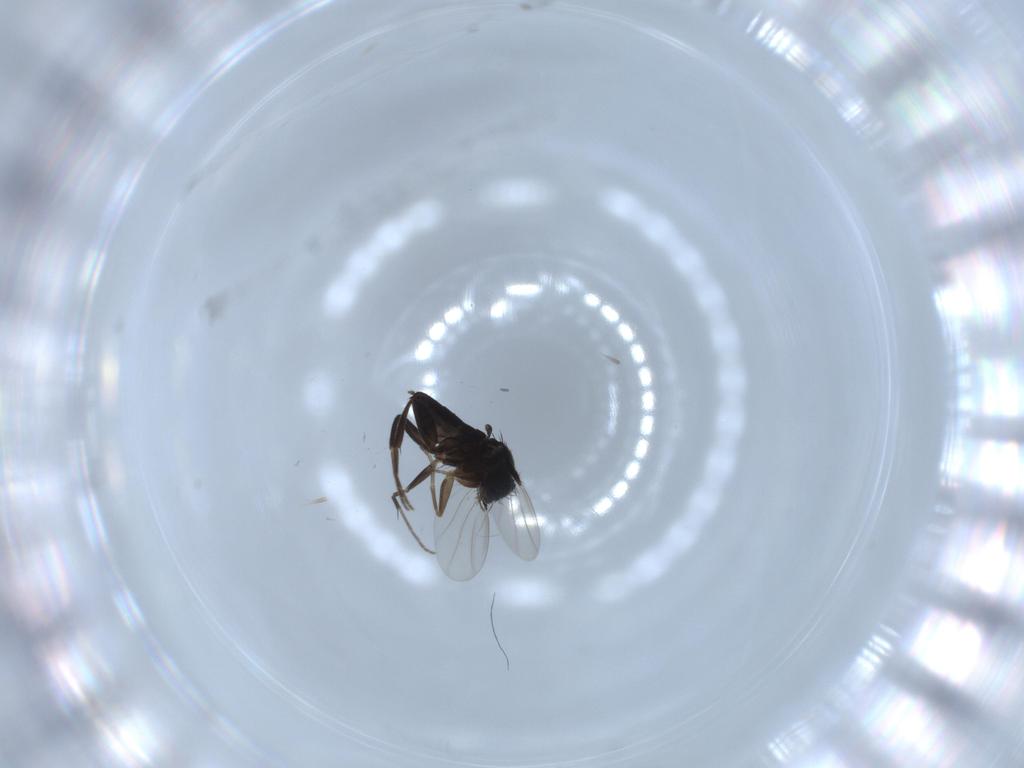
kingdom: Animalia
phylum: Arthropoda
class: Insecta
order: Diptera
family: Phoridae
